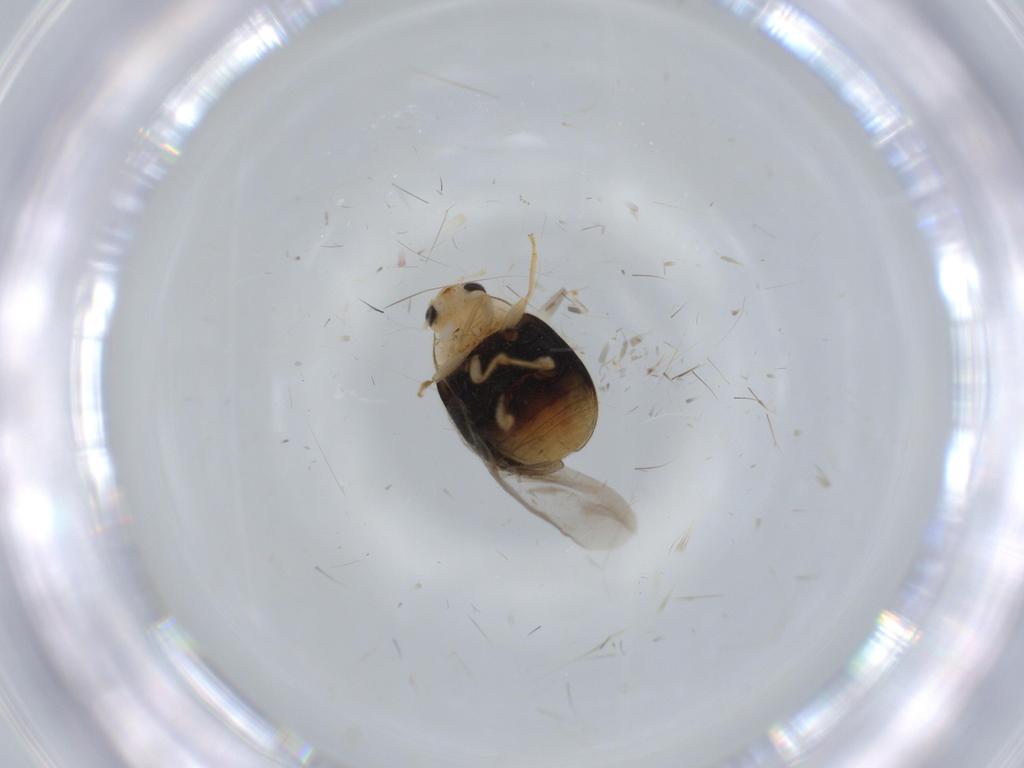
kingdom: Animalia
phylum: Arthropoda
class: Insecta
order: Coleoptera
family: Coccinellidae
